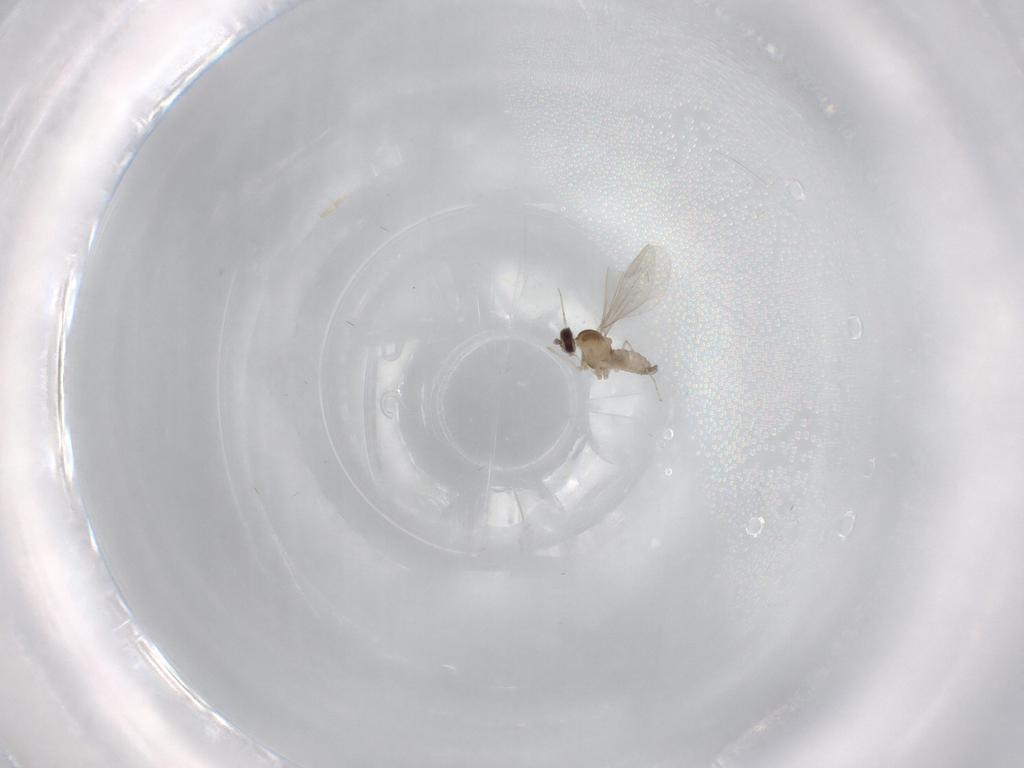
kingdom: Animalia
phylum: Arthropoda
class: Insecta
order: Diptera
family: Cecidomyiidae
